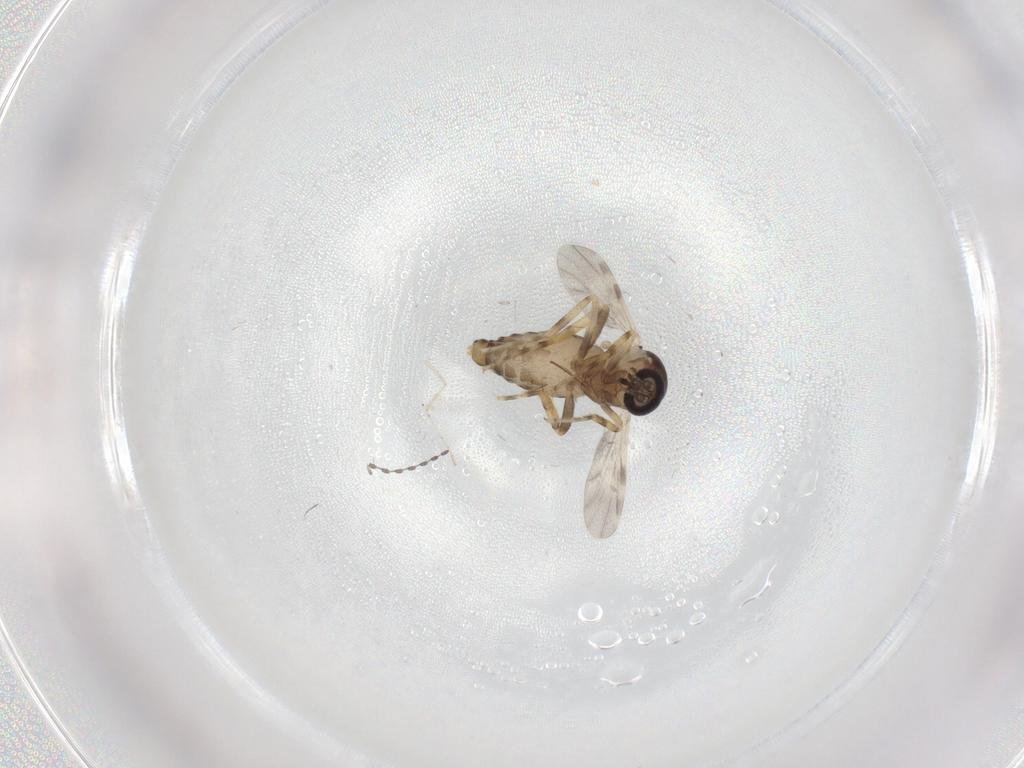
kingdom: Animalia
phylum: Arthropoda
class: Insecta
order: Diptera
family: Ceratopogonidae
